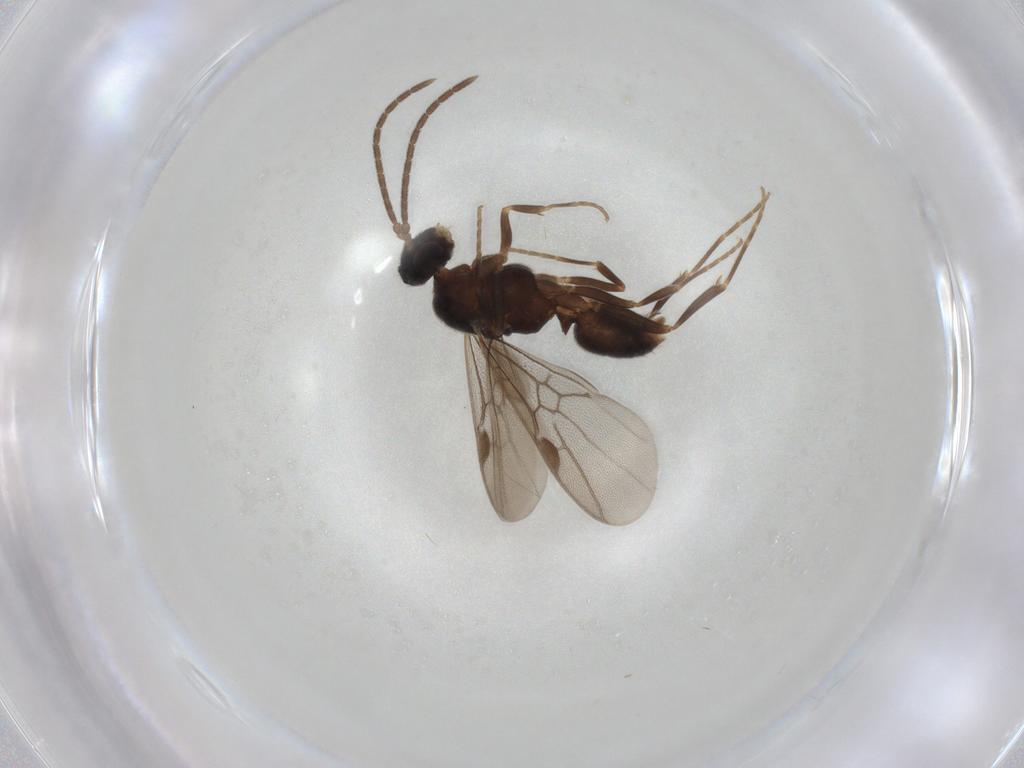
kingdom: Animalia
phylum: Arthropoda
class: Insecta
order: Hymenoptera
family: Formicidae
